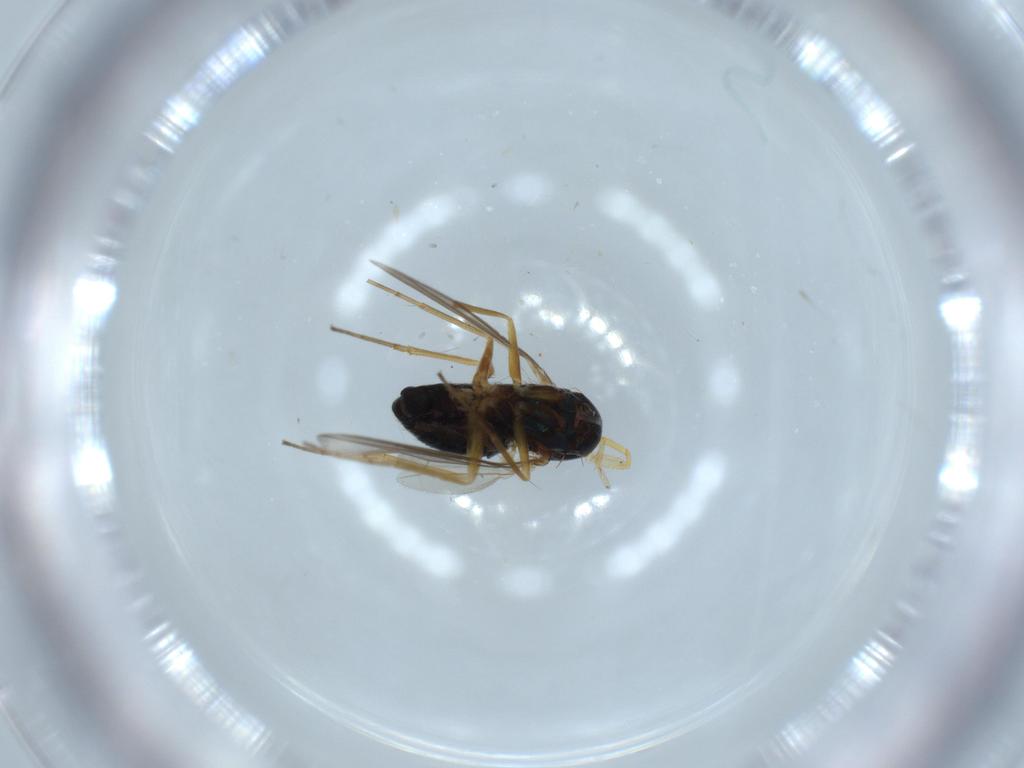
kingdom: Animalia
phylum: Arthropoda
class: Insecta
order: Diptera
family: Dolichopodidae
